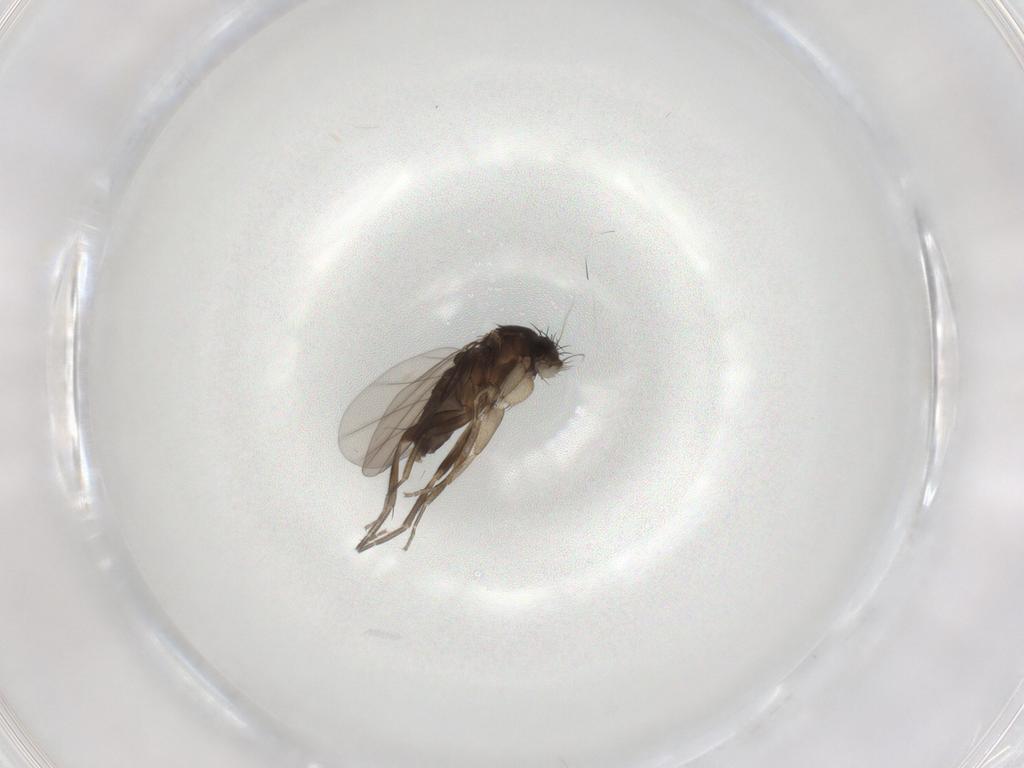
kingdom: Animalia
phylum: Arthropoda
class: Insecta
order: Diptera
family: Phoridae
